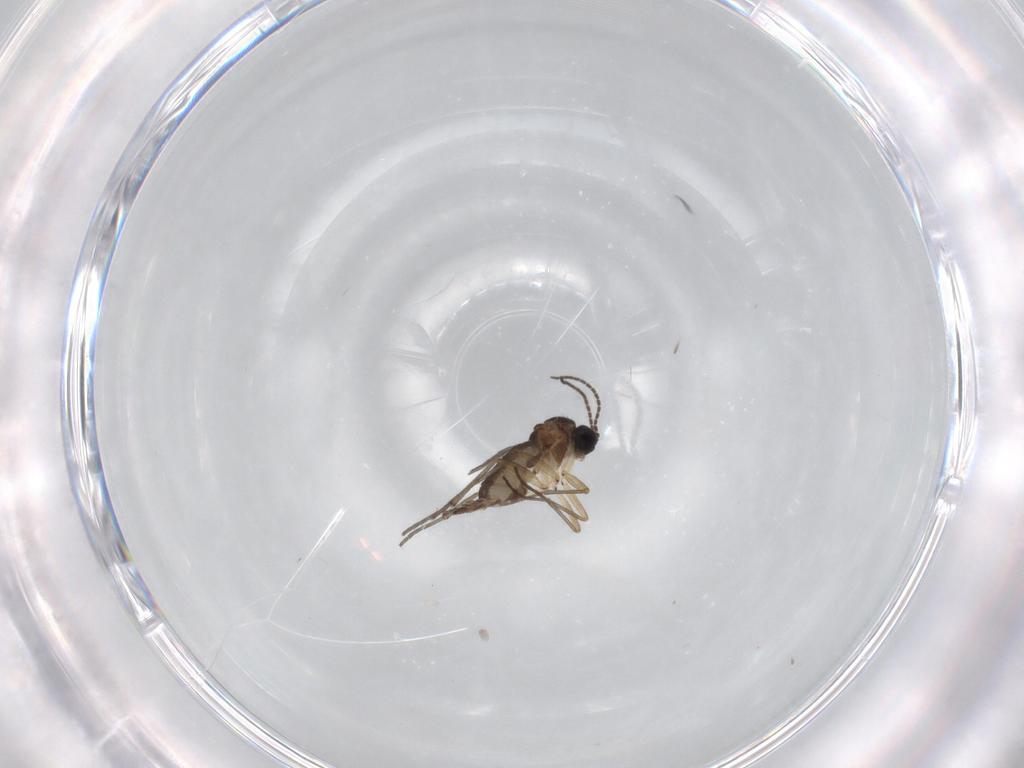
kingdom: Animalia
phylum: Arthropoda
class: Insecta
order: Diptera
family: Sciaridae
